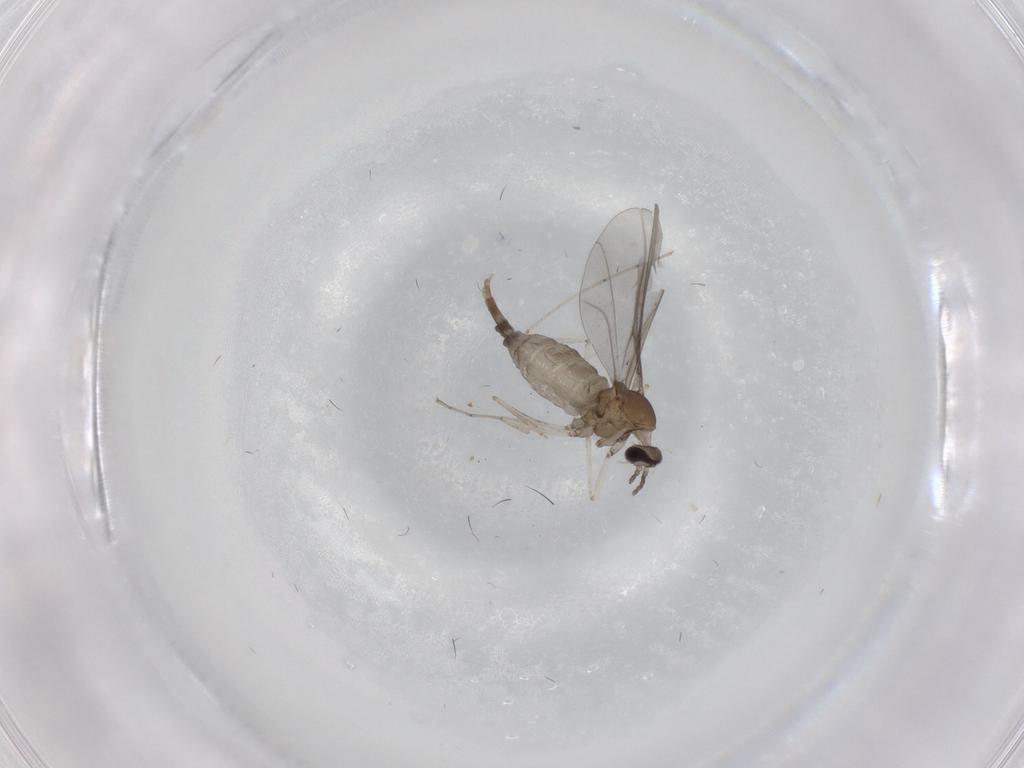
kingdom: Animalia
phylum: Arthropoda
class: Insecta
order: Diptera
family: Cecidomyiidae
